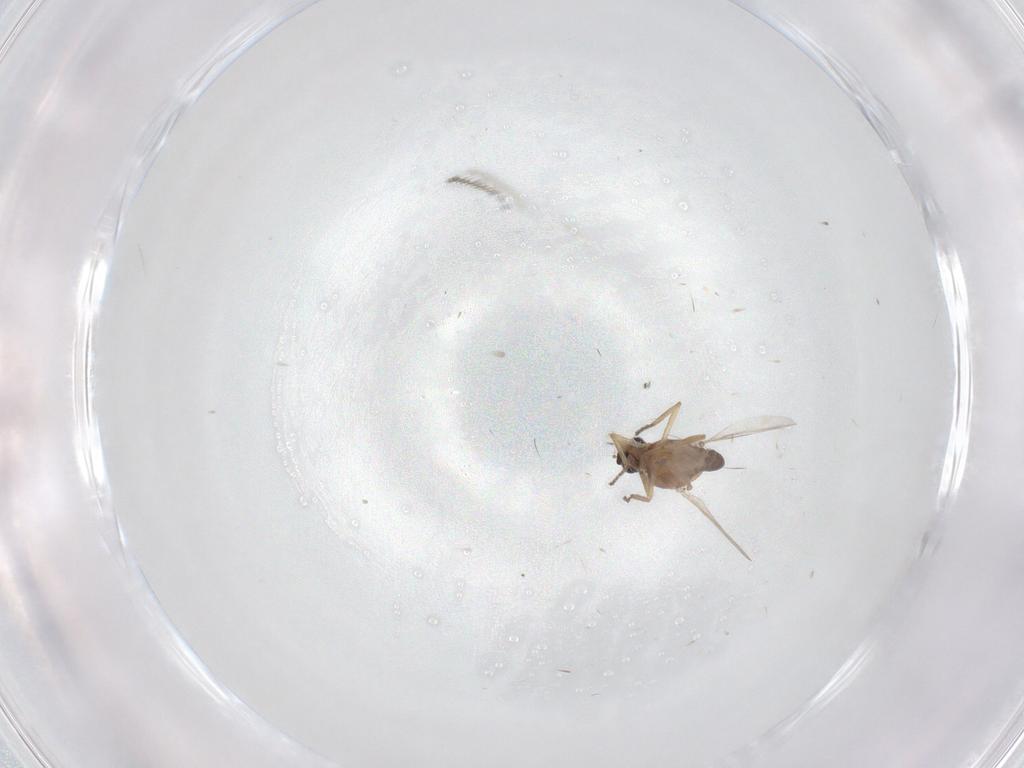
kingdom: Animalia
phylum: Arthropoda
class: Insecta
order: Diptera
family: Ceratopogonidae
